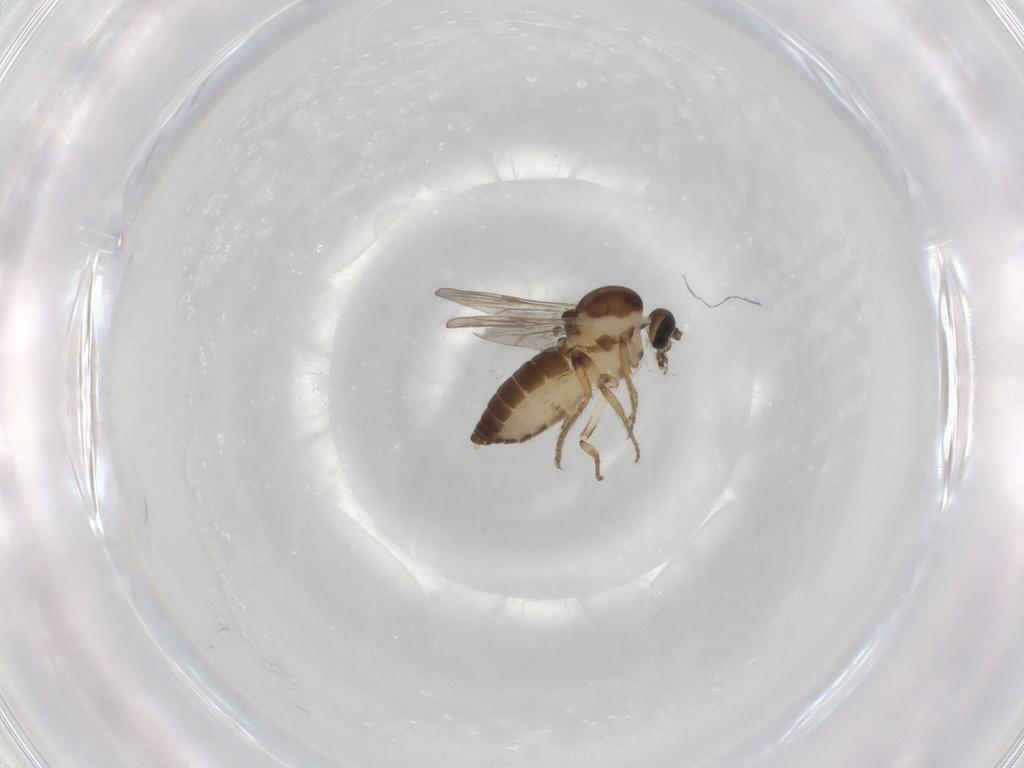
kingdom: Animalia
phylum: Arthropoda
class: Insecta
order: Diptera
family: Ceratopogonidae
